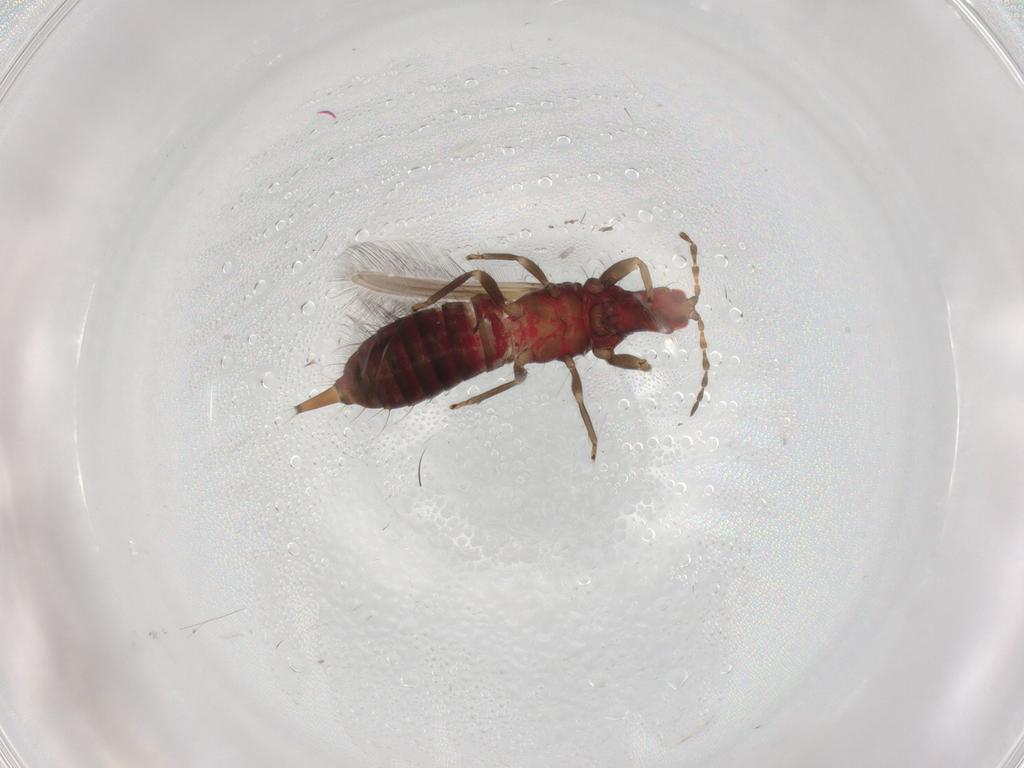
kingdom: Animalia
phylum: Arthropoda
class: Insecta
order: Thysanoptera
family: Phlaeothripidae
